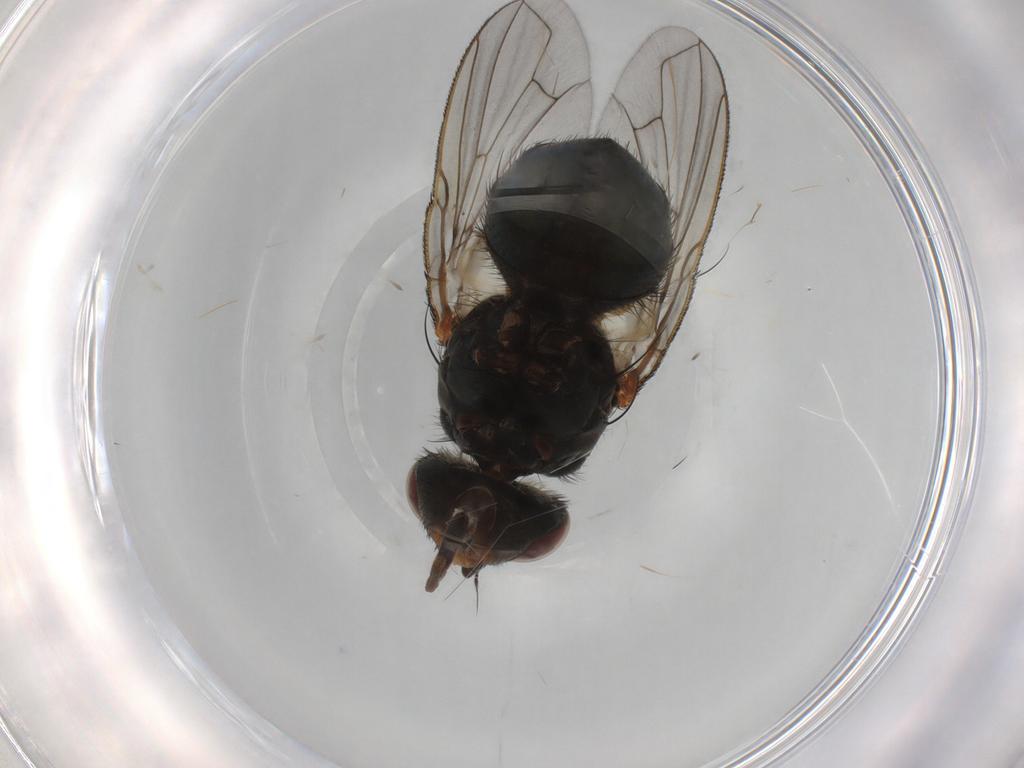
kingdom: Animalia
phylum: Arthropoda
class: Insecta
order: Diptera
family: Calliphoridae
